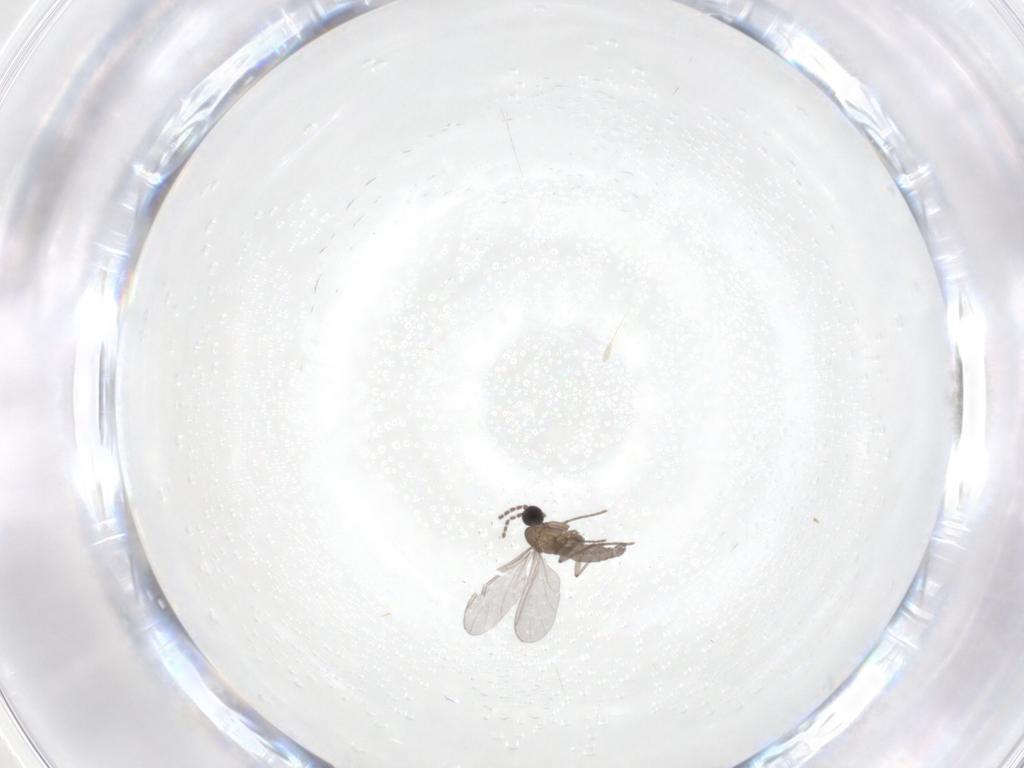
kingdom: Animalia
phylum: Arthropoda
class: Insecta
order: Diptera
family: Sciaridae
